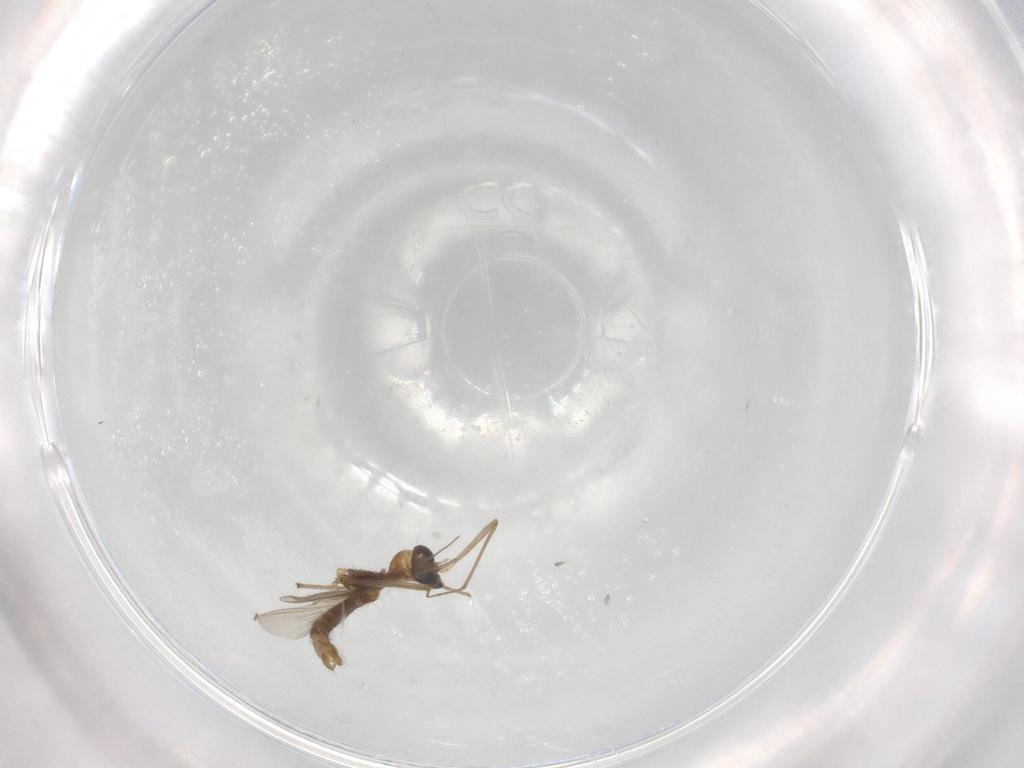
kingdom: Animalia
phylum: Arthropoda
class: Insecta
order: Diptera
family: Chironomidae
